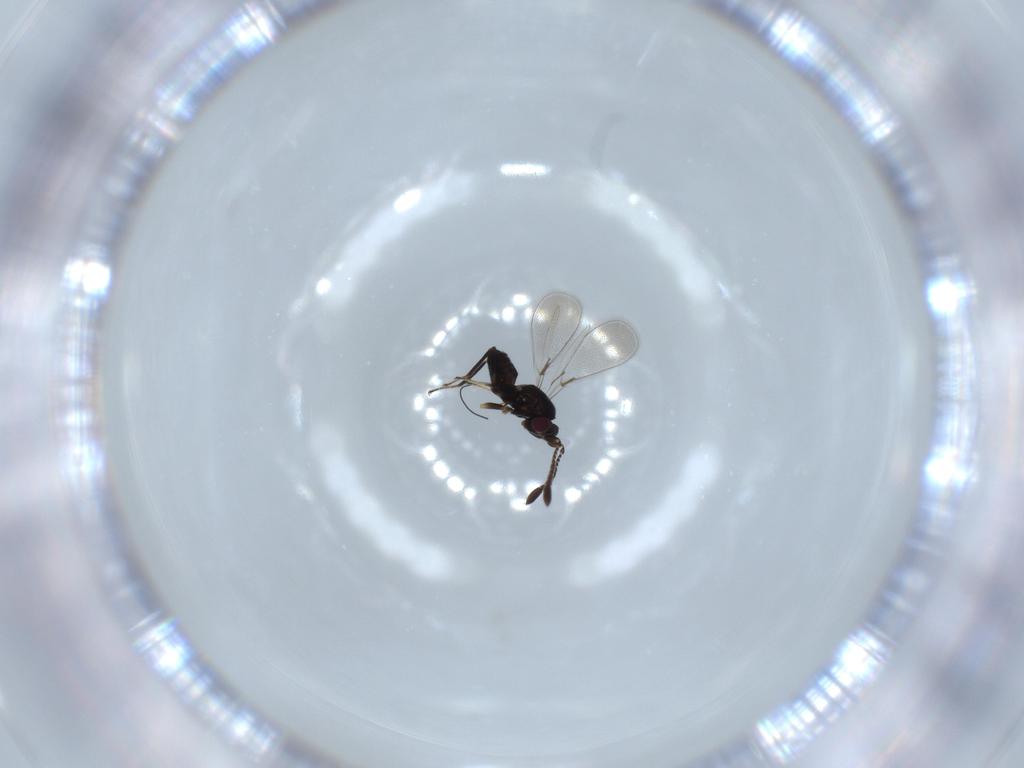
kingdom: Animalia
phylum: Arthropoda
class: Insecta
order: Hymenoptera
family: Mymaridae
